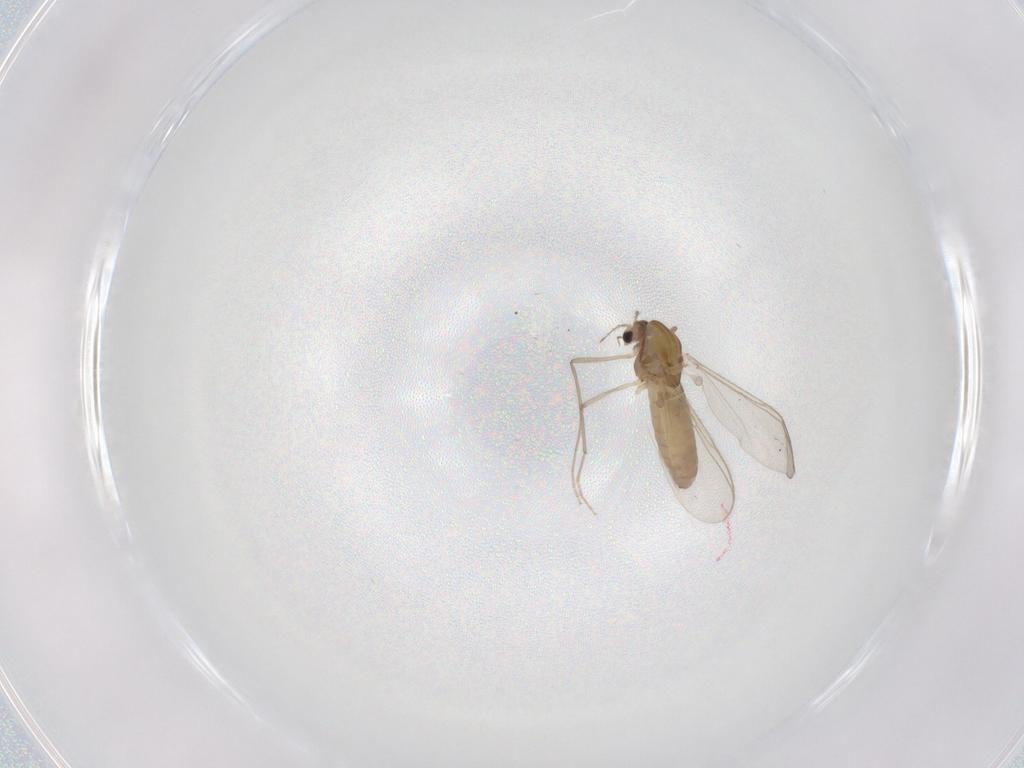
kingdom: Animalia
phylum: Arthropoda
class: Insecta
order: Diptera
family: Chironomidae
